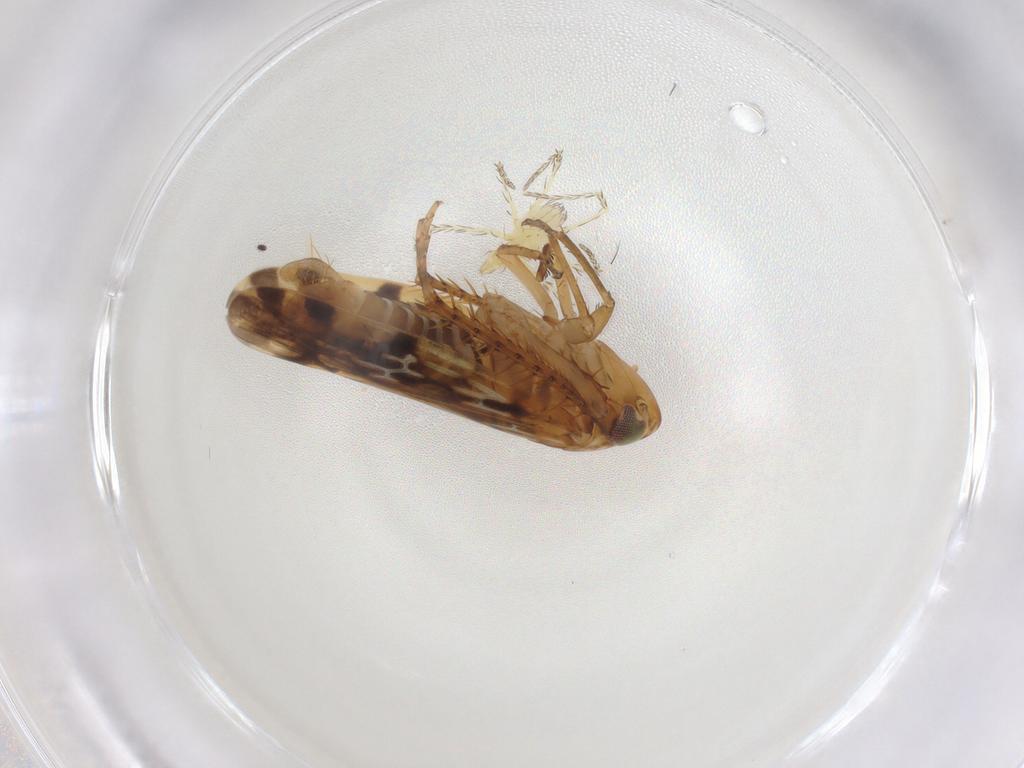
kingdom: Animalia
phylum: Arthropoda
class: Insecta
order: Hemiptera
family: Cicadellidae
